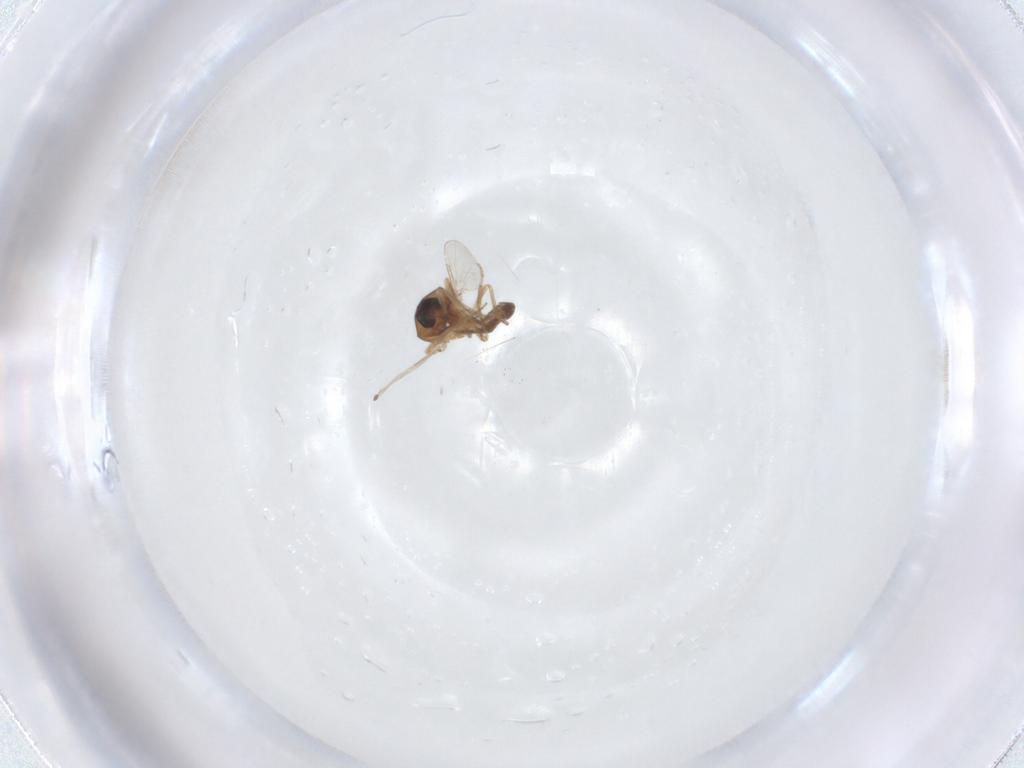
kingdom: Animalia
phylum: Arthropoda
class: Insecta
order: Diptera
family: Ceratopogonidae
